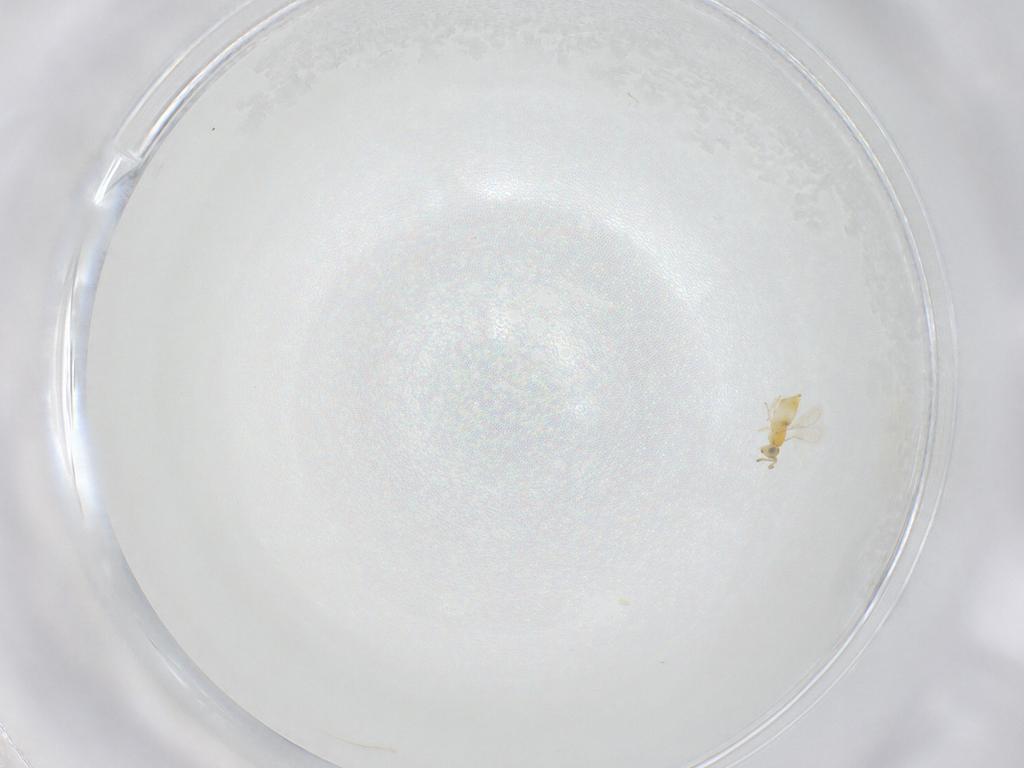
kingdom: Animalia
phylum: Arthropoda
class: Insecta
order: Hymenoptera
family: Aphelinidae
